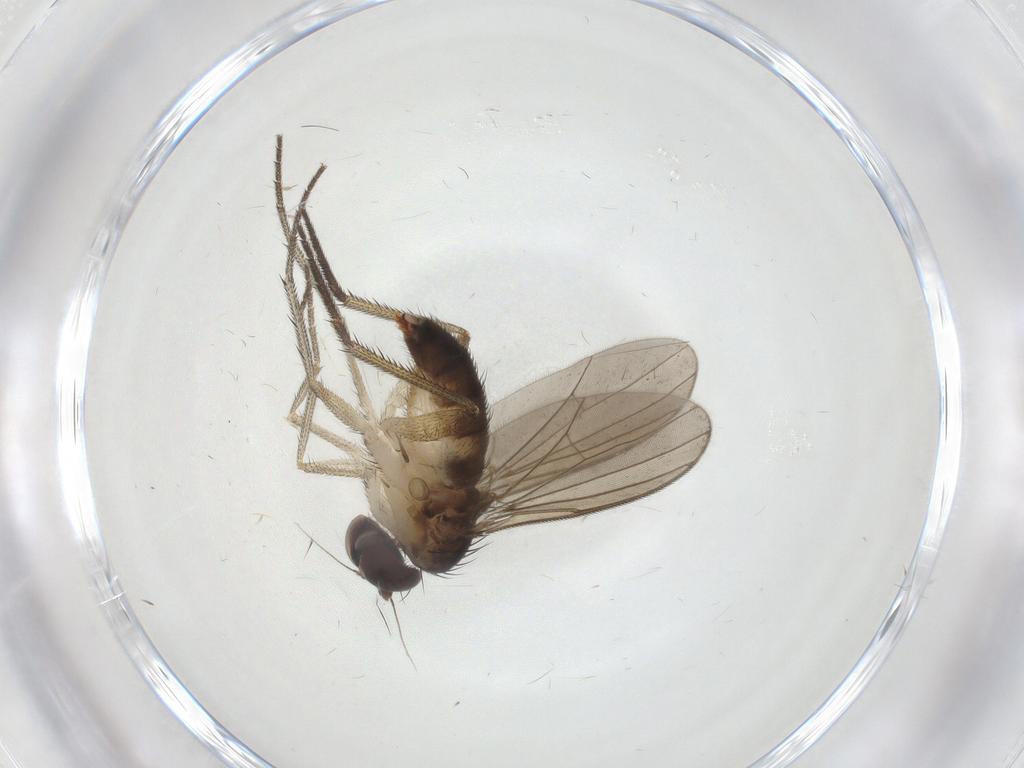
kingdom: Animalia
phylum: Arthropoda
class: Insecta
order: Diptera
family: Dolichopodidae
